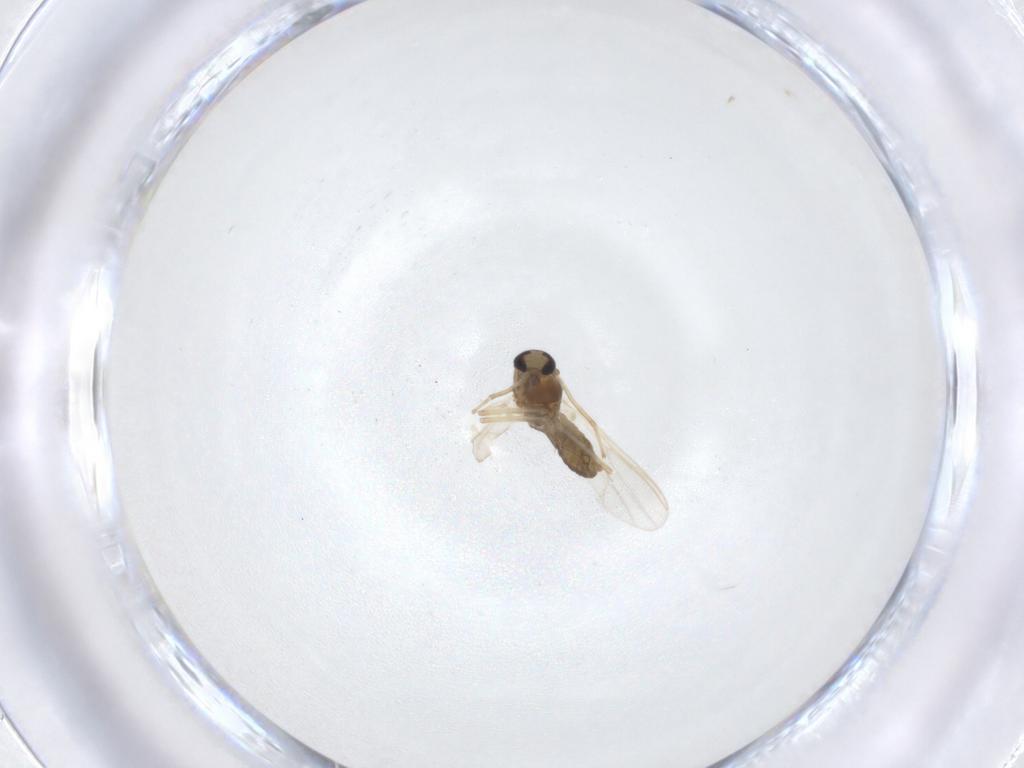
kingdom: Animalia
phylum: Arthropoda
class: Insecta
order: Diptera
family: Chironomidae
